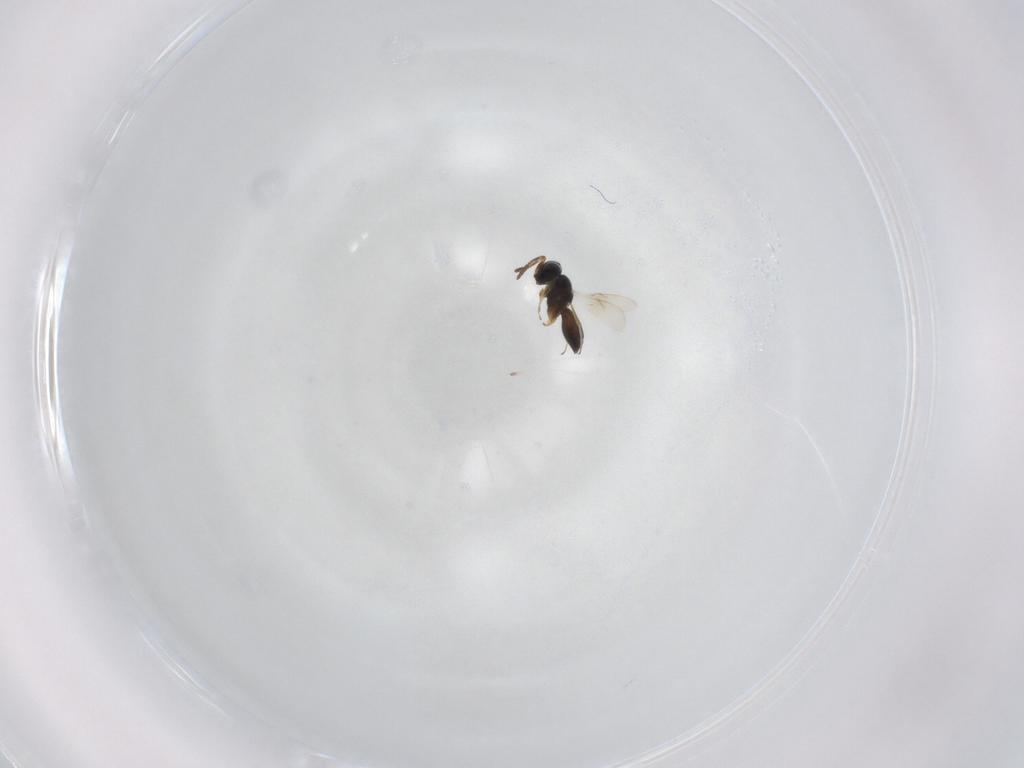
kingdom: Animalia
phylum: Arthropoda
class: Insecta
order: Hymenoptera
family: Scelionidae
